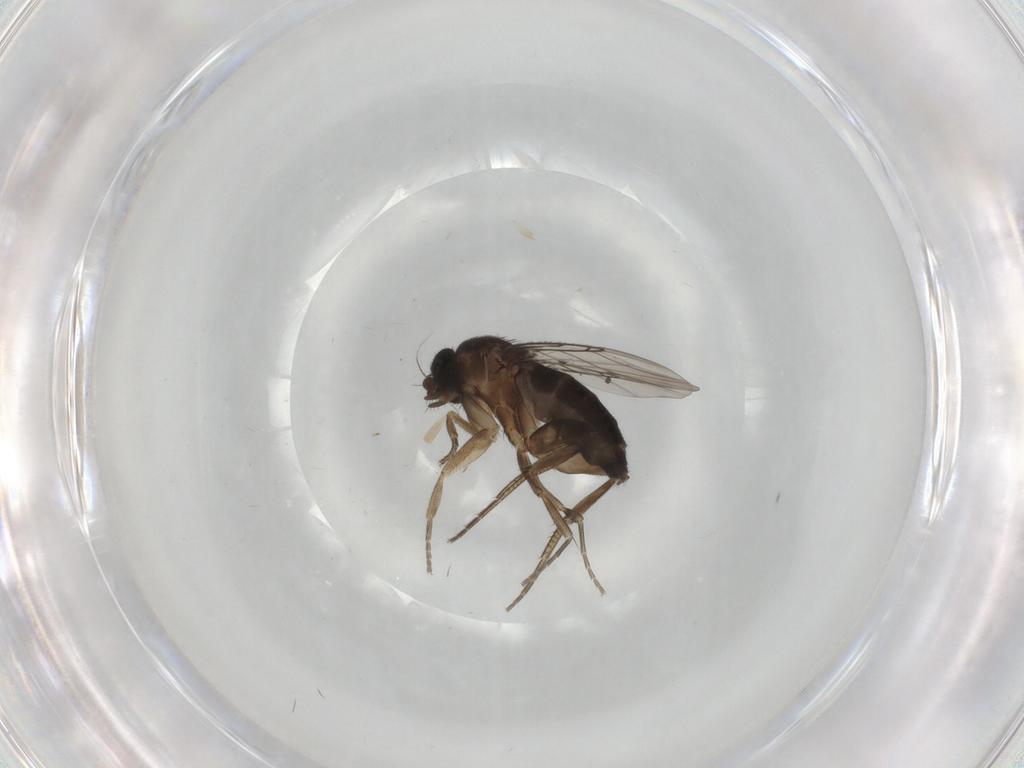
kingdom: Animalia
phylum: Arthropoda
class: Insecta
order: Diptera
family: Phoridae
